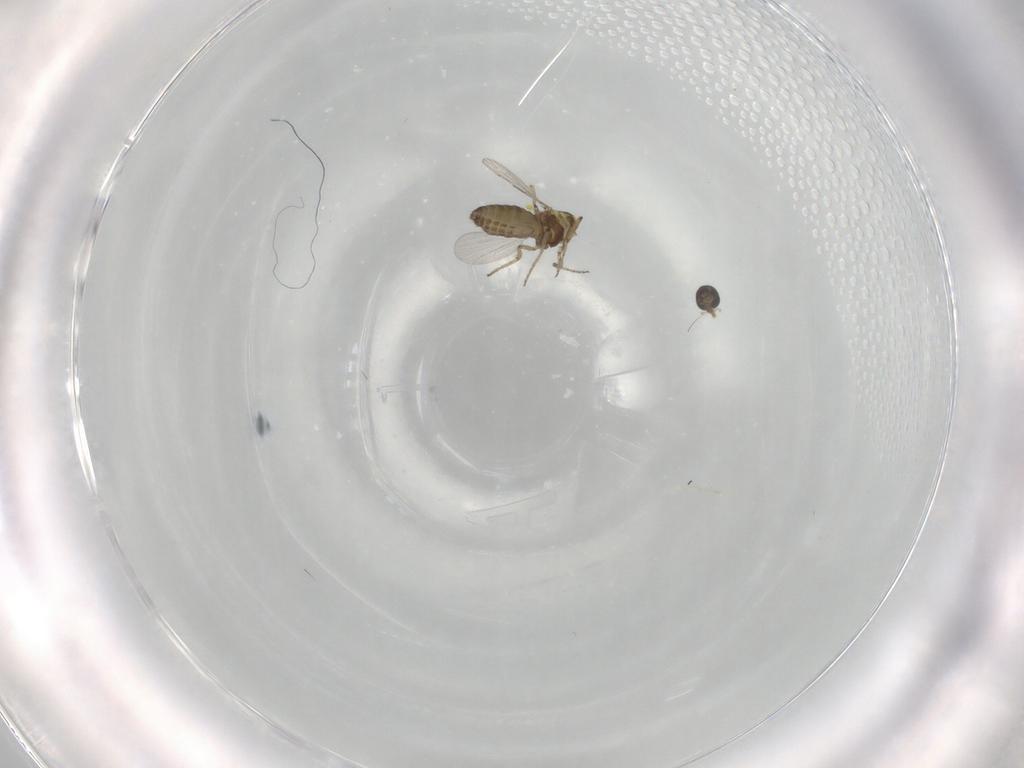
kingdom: Animalia
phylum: Arthropoda
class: Insecta
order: Diptera
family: Ceratopogonidae
